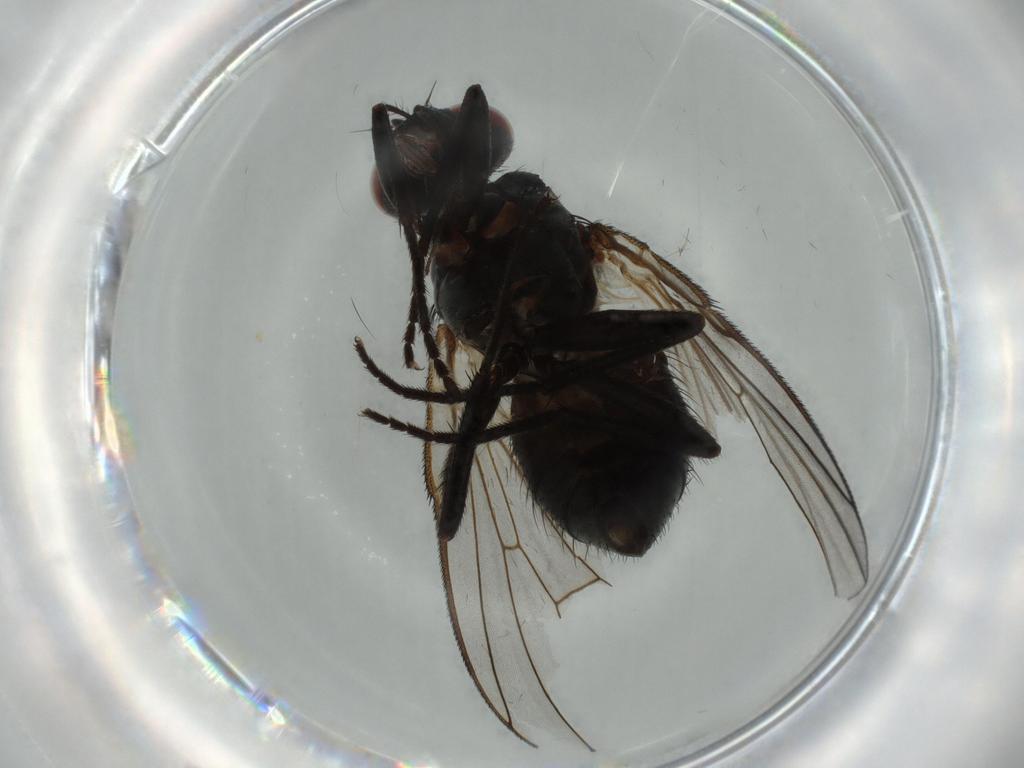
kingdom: Animalia
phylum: Arthropoda
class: Insecta
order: Diptera
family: Muscidae
